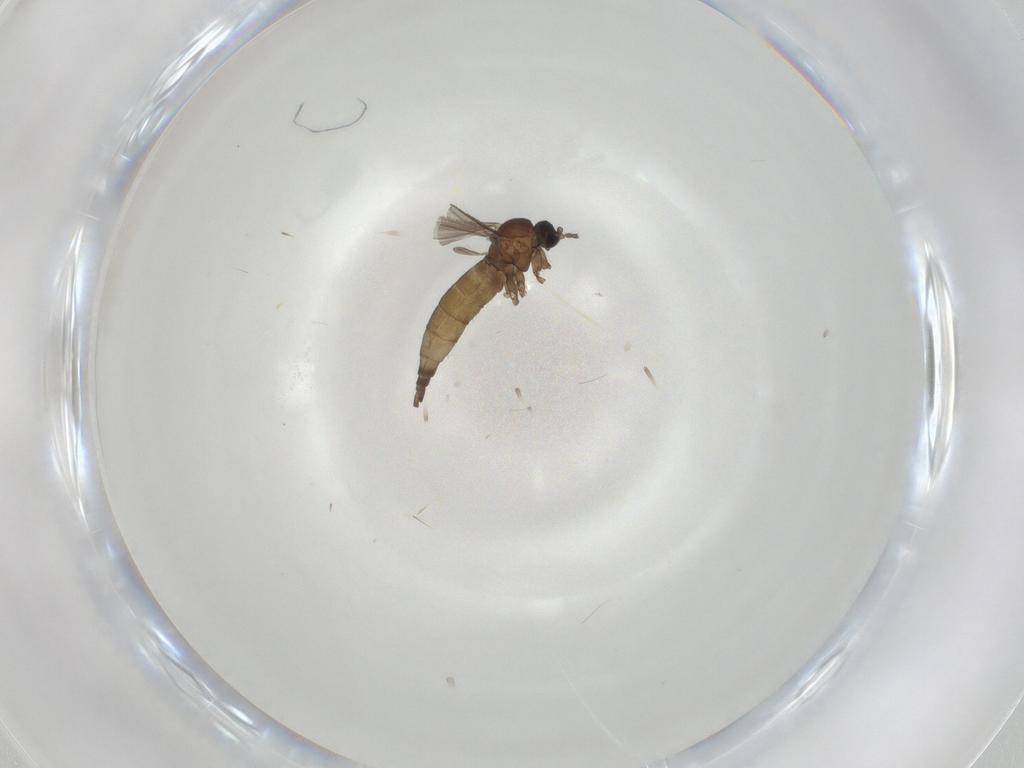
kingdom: Animalia
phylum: Arthropoda
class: Insecta
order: Diptera
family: Sciaridae
